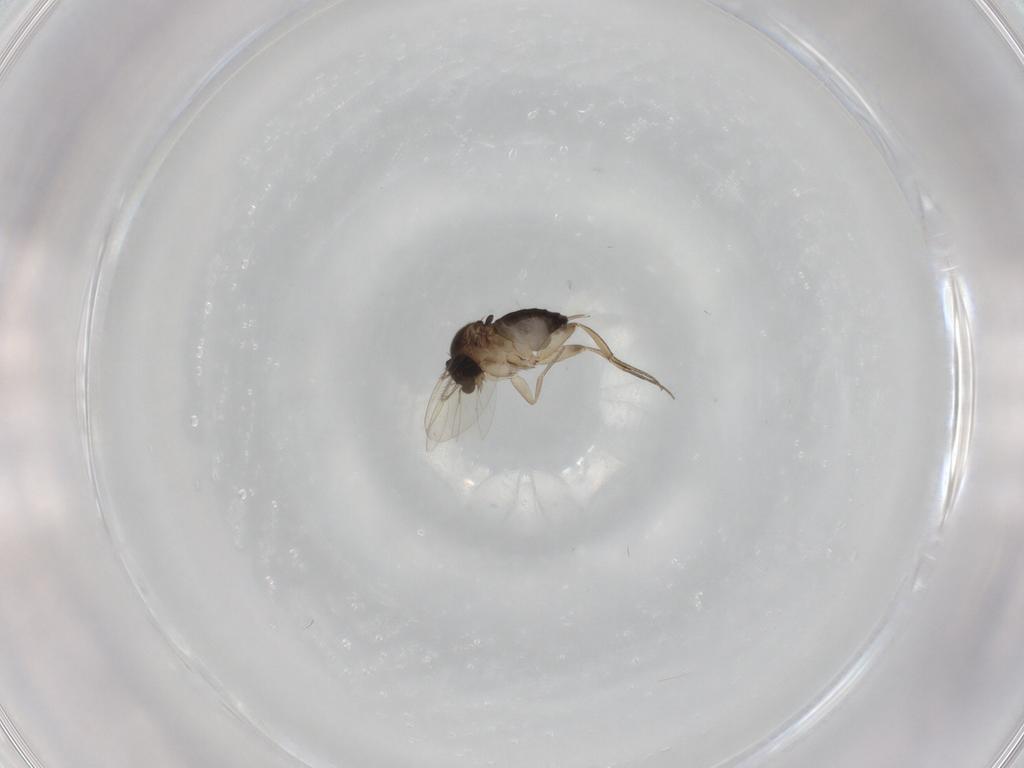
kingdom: Animalia
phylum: Arthropoda
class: Insecta
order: Diptera
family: Phoridae
